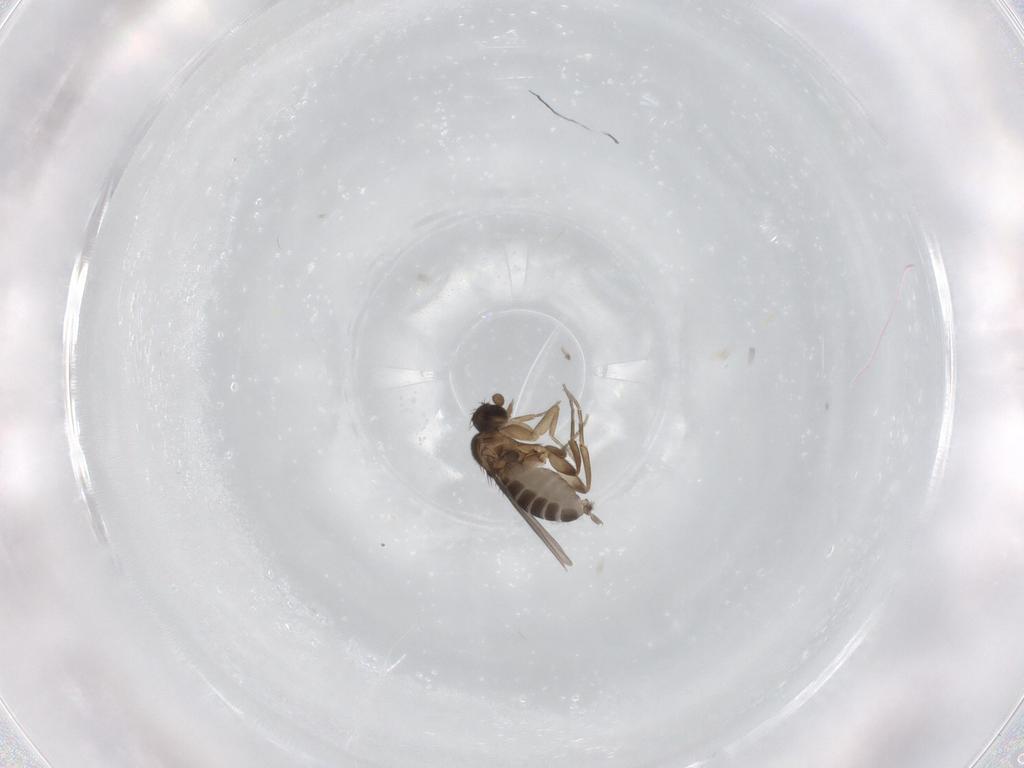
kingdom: Animalia
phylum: Arthropoda
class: Insecta
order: Diptera
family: Phoridae
